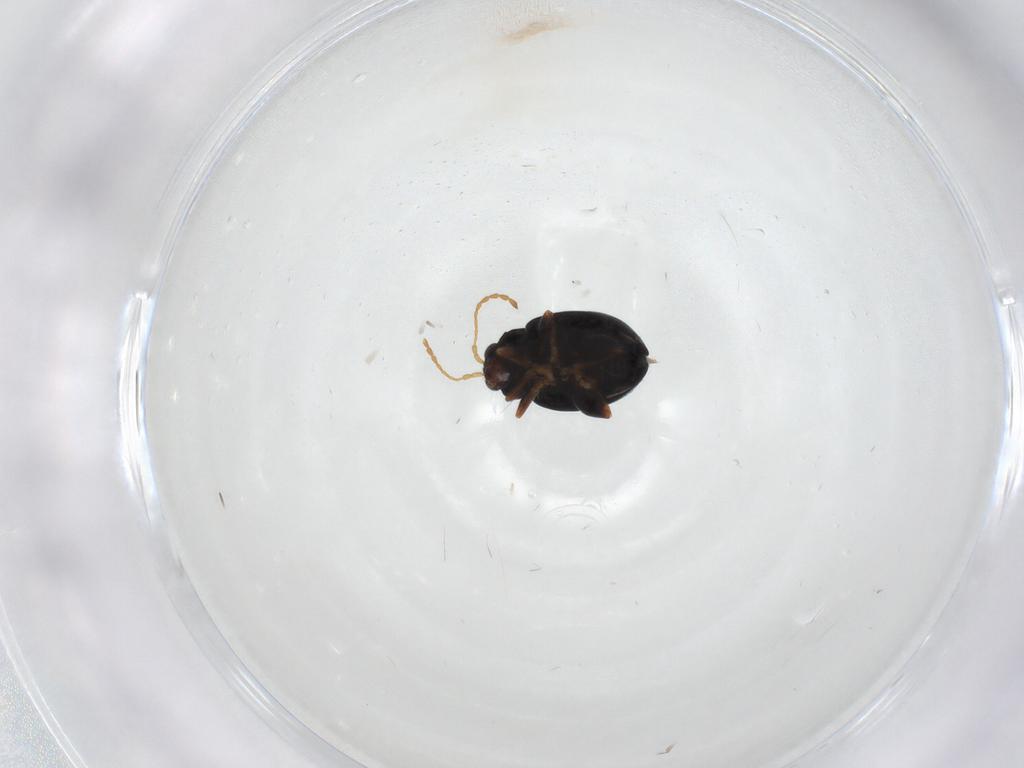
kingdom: Animalia
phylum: Arthropoda
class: Insecta
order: Coleoptera
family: Chrysomelidae
